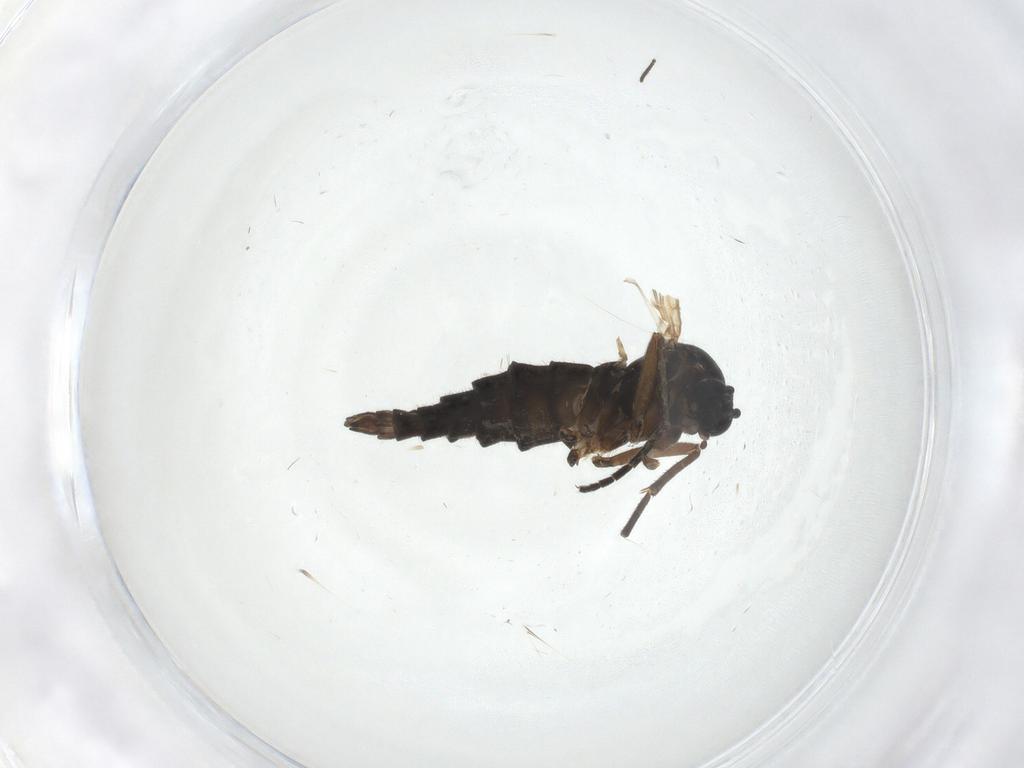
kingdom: Animalia
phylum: Arthropoda
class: Insecta
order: Diptera
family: Sciaridae
